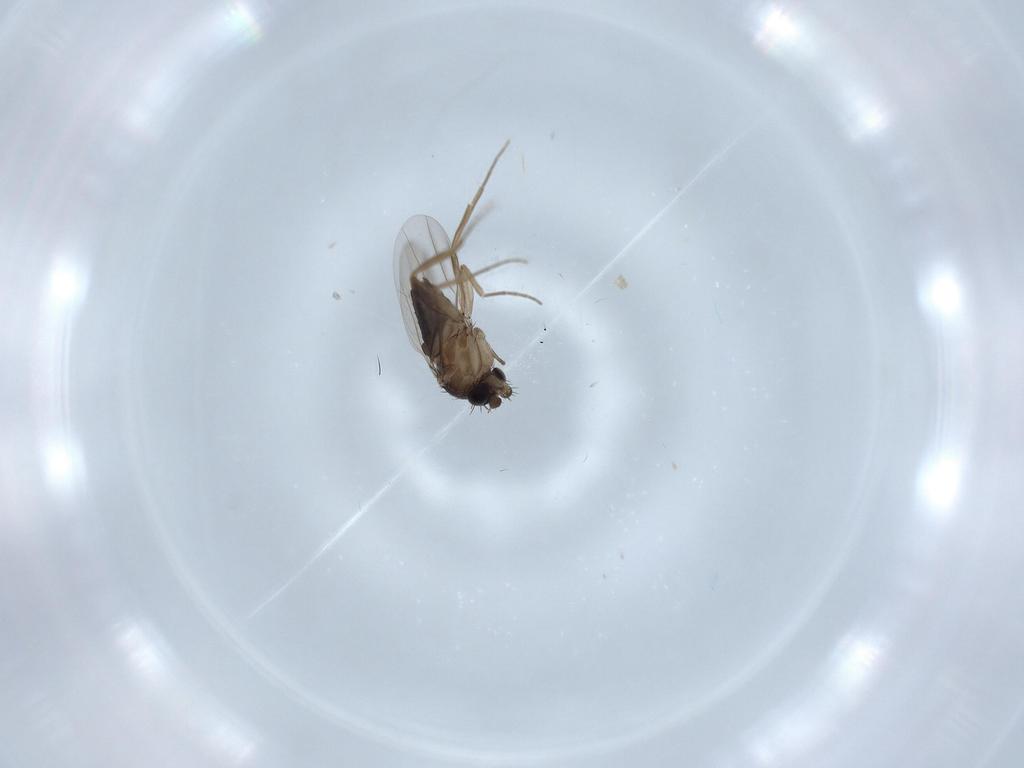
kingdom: Animalia
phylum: Arthropoda
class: Insecta
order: Diptera
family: Phoridae
